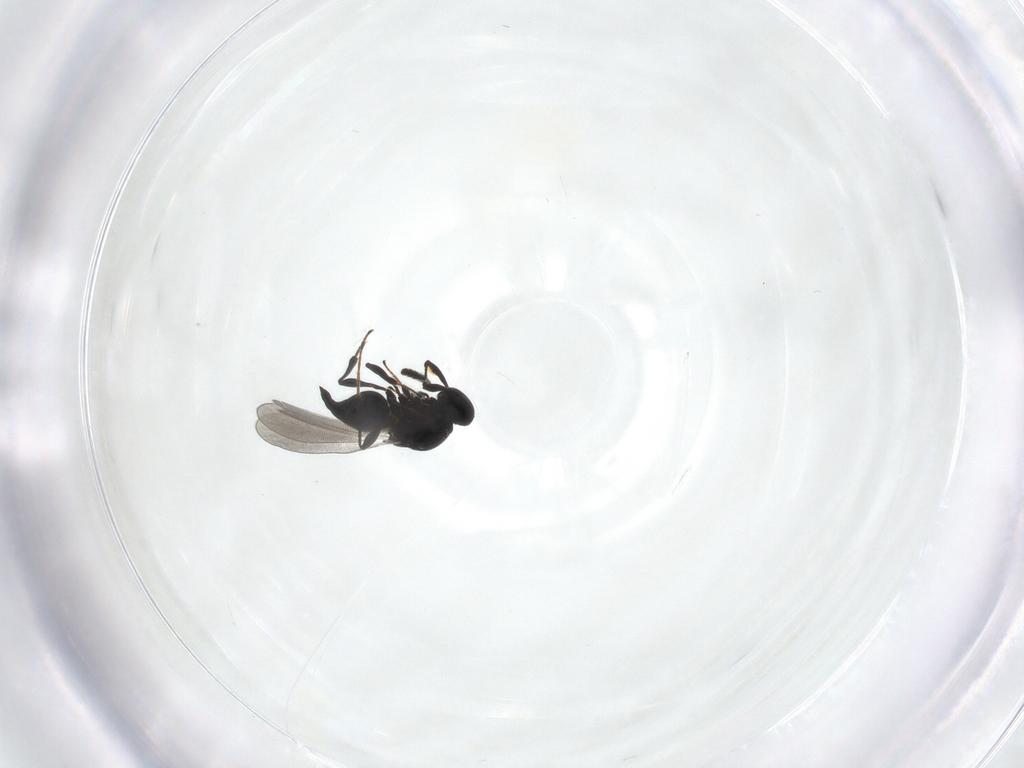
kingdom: Animalia
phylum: Arthropoda
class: Insecta
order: Hymenoptera
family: Platygastridae
